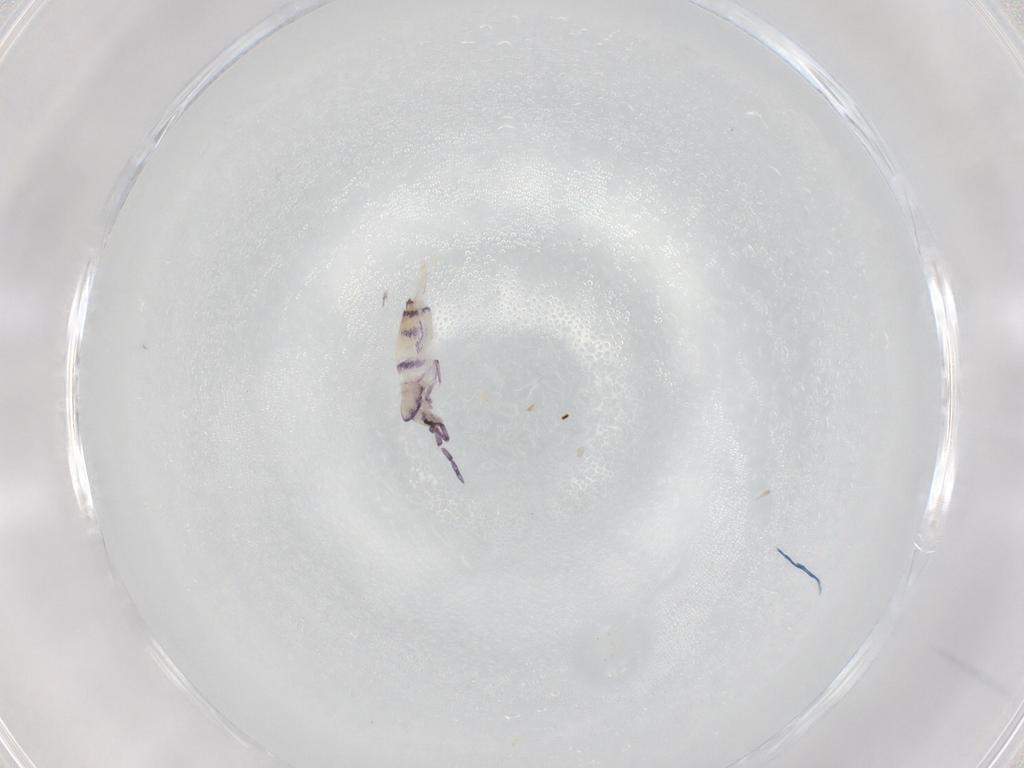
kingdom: Animalia
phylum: Arthropoda
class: Collembola
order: Entomobryomorpha
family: Entomobryidae
